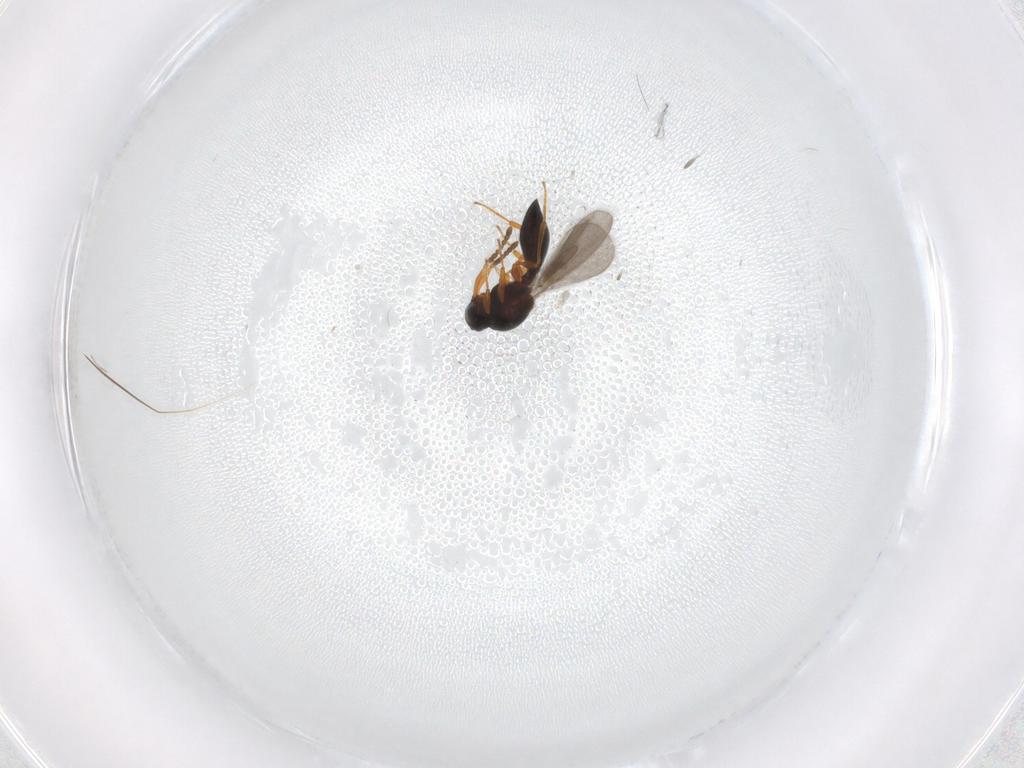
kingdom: Animalia
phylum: Arthropoda
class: Insecta
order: Hymenoptera
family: Platygastridae
